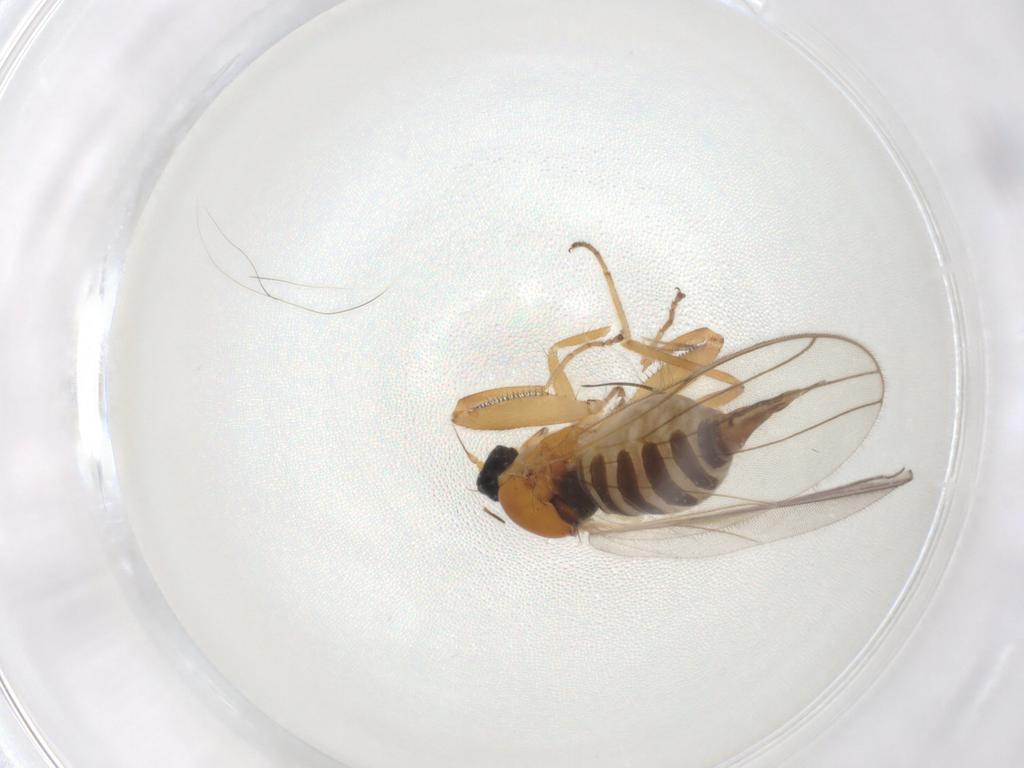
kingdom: Animalia
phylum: Arthropoda
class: Insecta
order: Diptera
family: Hybotidae
